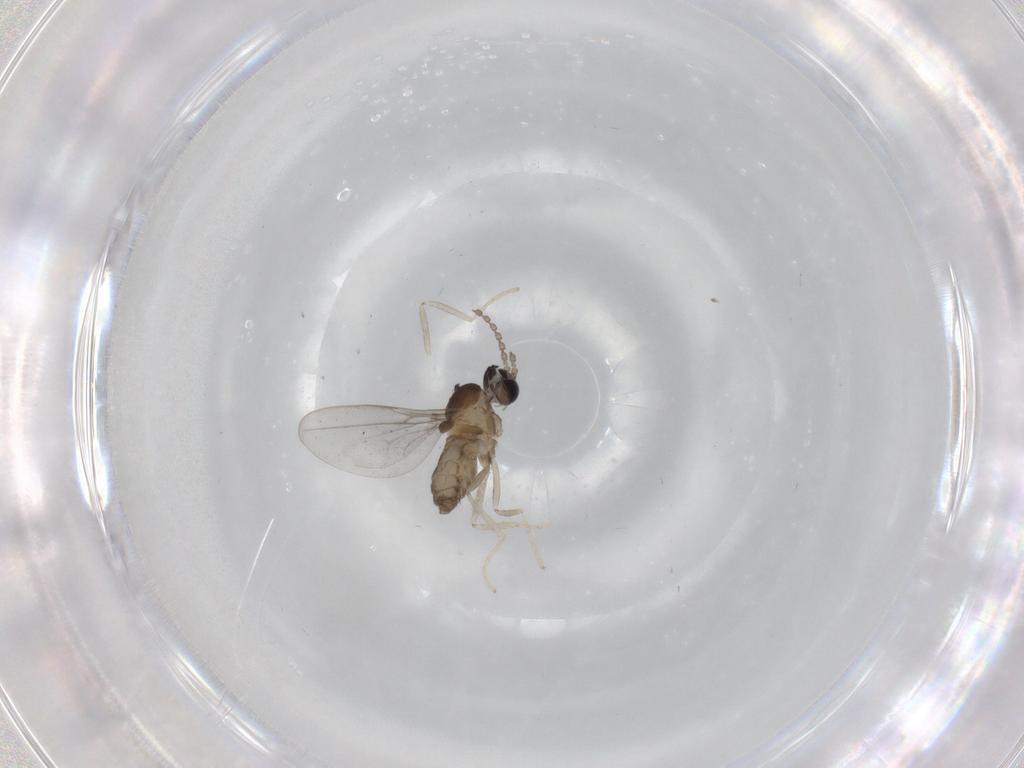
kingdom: Animalia
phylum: Arthropoda
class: Insecta
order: Diptera
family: Cecidomyiidae
